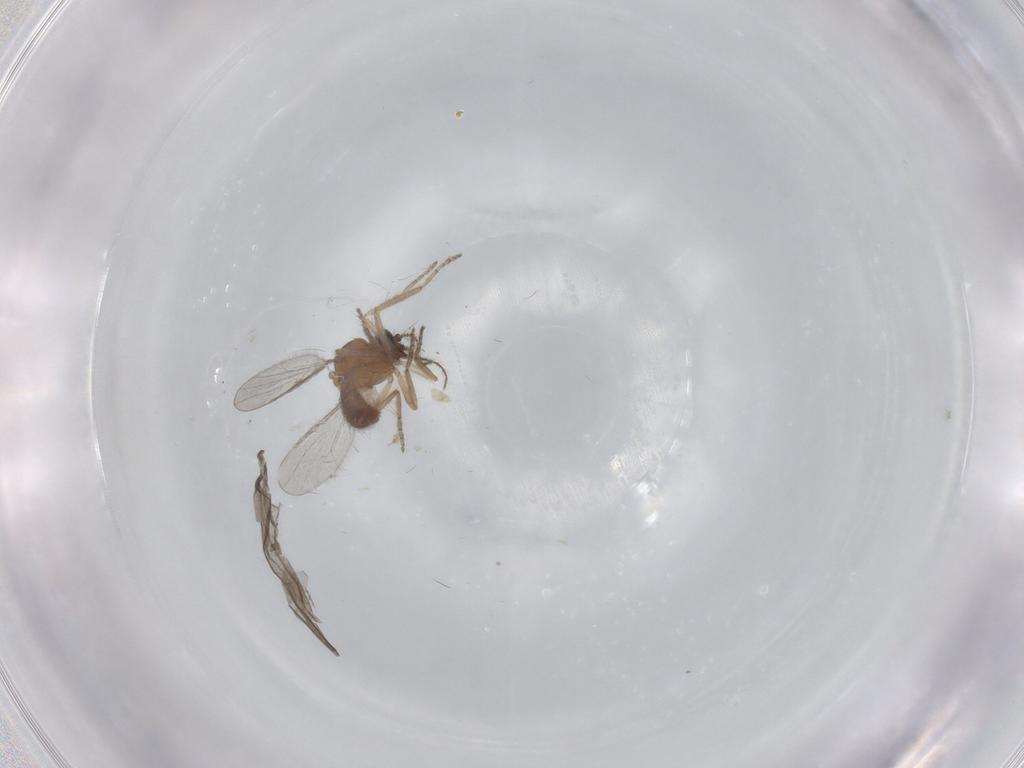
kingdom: Animalia
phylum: Arthropoda
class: Insecta
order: Diptera
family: Ceratopogonidae
